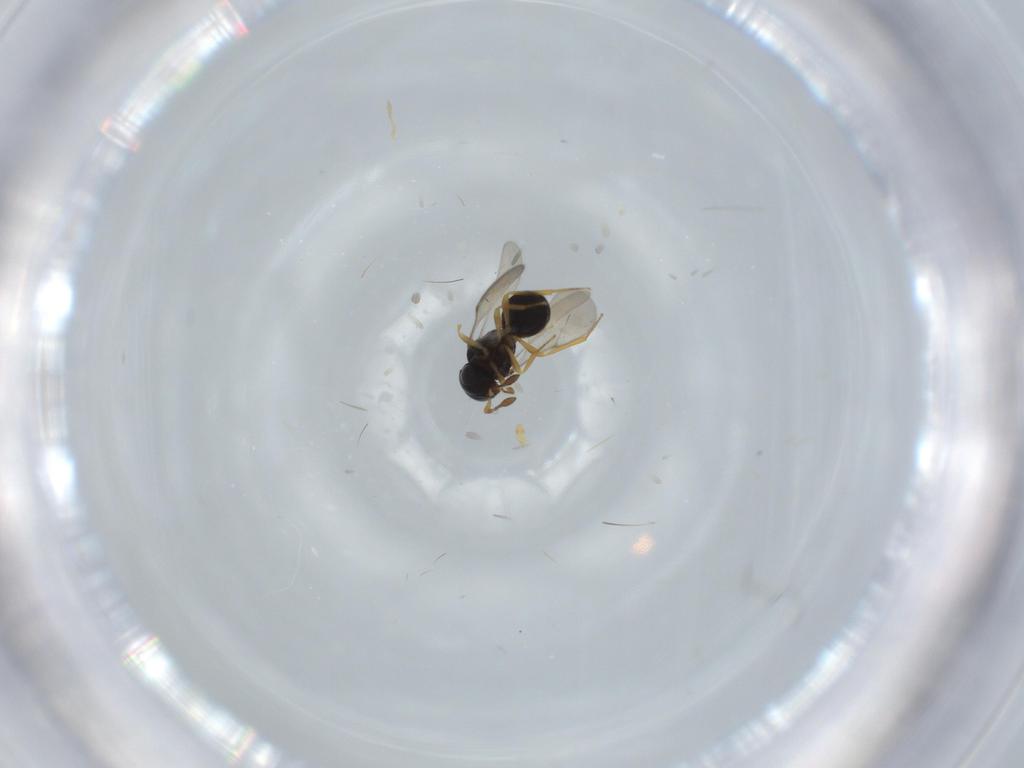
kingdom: Animalia
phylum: Arthropoda
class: Insecta
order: Hymenoptera
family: Scelionidae
